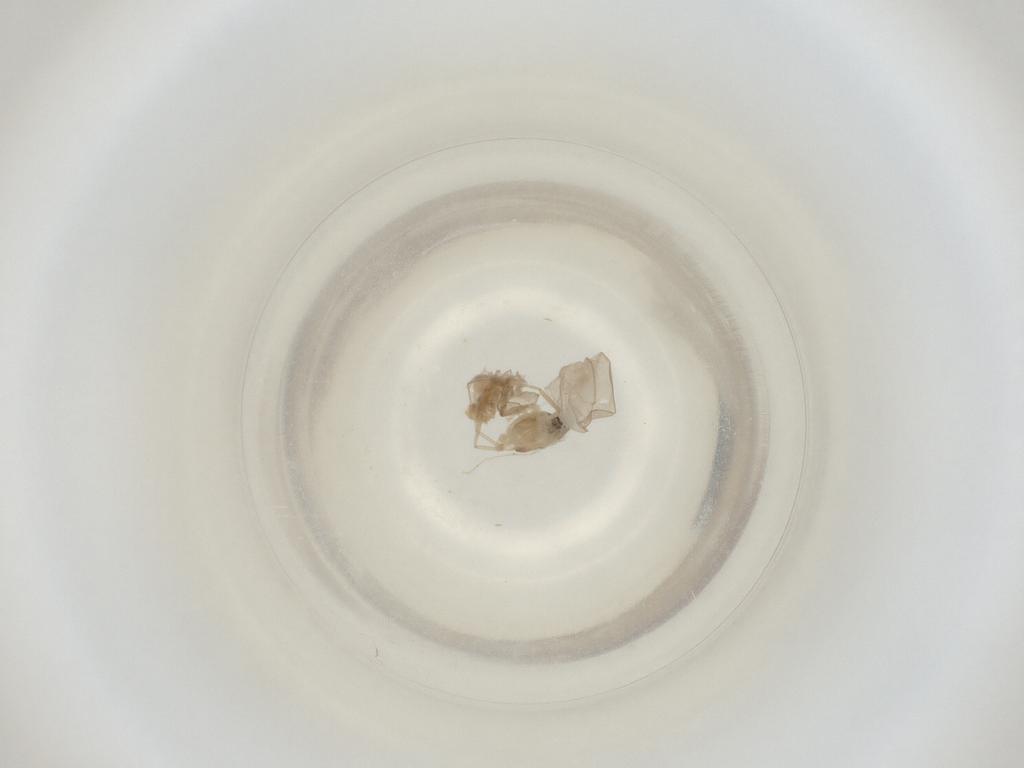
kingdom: Animalia
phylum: Arthropoda
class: Insecta
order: Diptera
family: Cecidomyiidae
